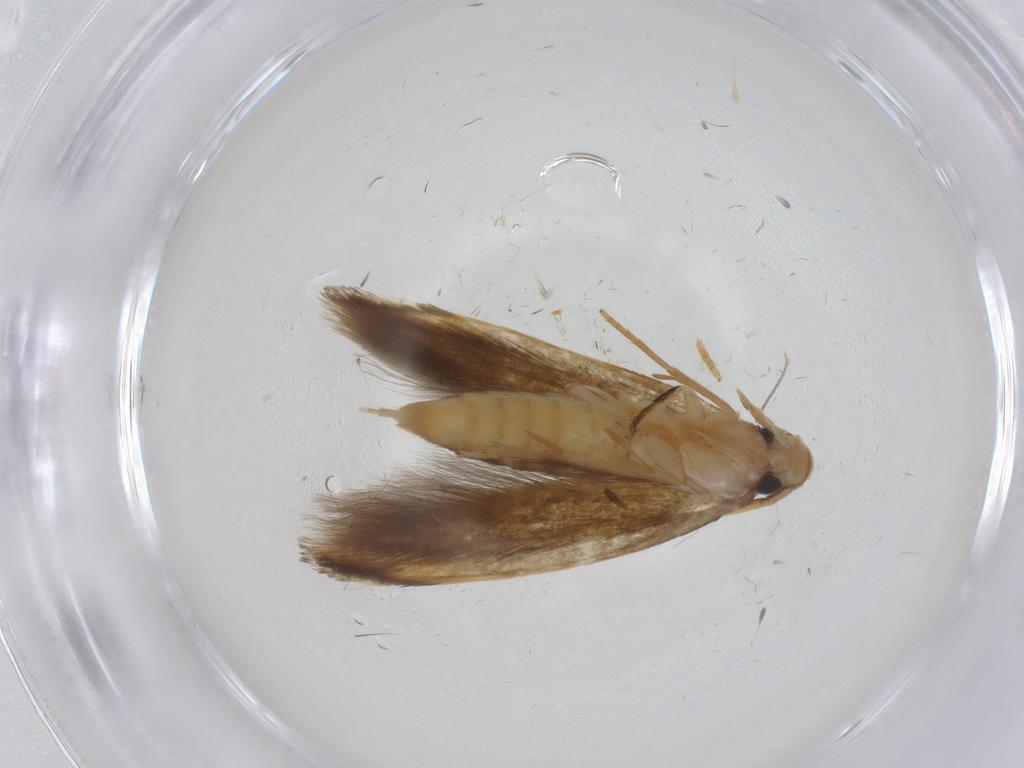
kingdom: Animalia
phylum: Arthropoda
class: Insecta
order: Lepidoptera
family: Tineidae
